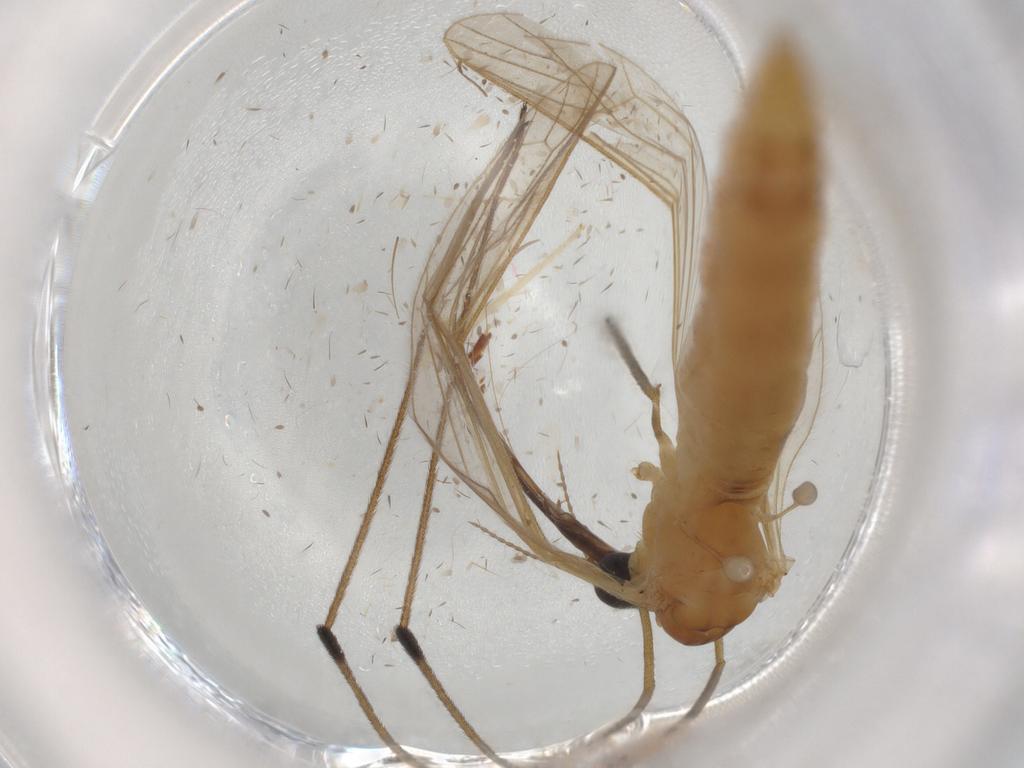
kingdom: Animalia
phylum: Arthropoda
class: Insecta
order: Diptera
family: Limoniidae
